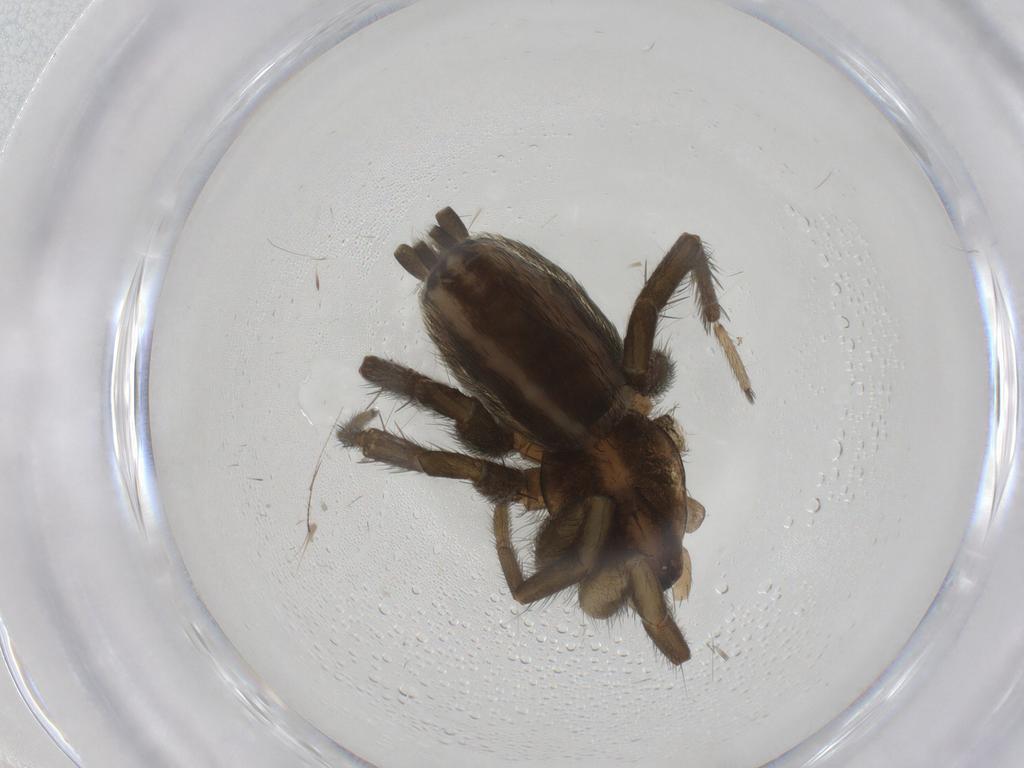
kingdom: Animalia
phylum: Arthropoda
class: Arachnida
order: Araneae
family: Gnaphosidae
